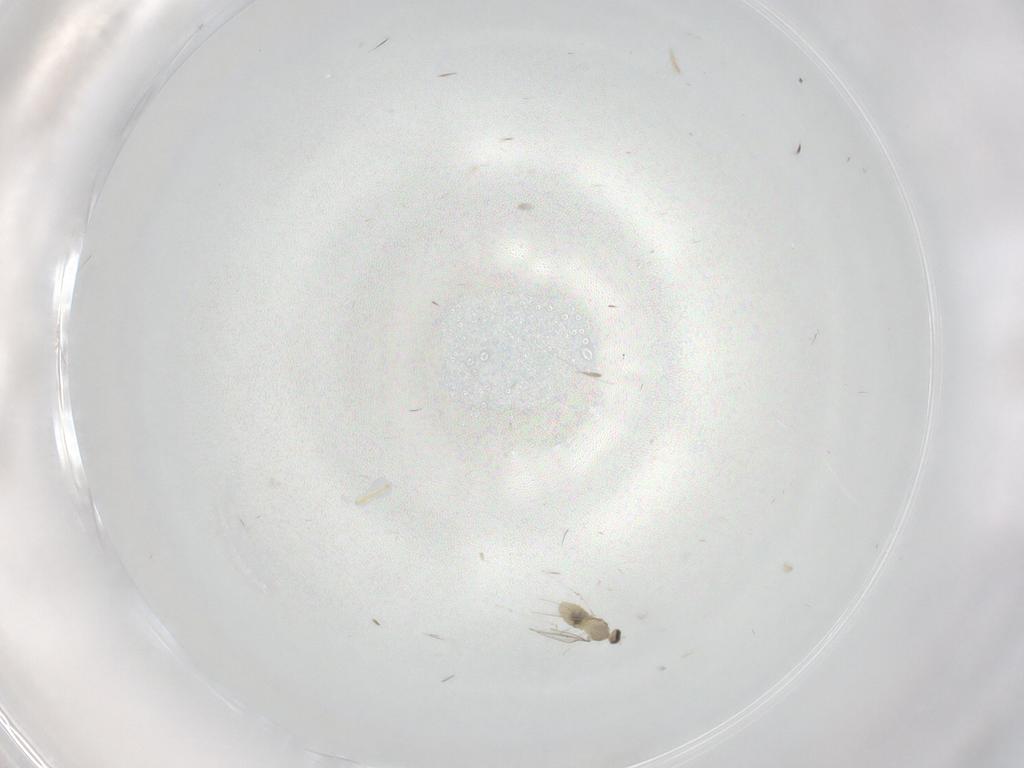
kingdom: Animalia
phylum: Arthropoda
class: Insecta
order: Diptera
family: Cecidomyiidae
